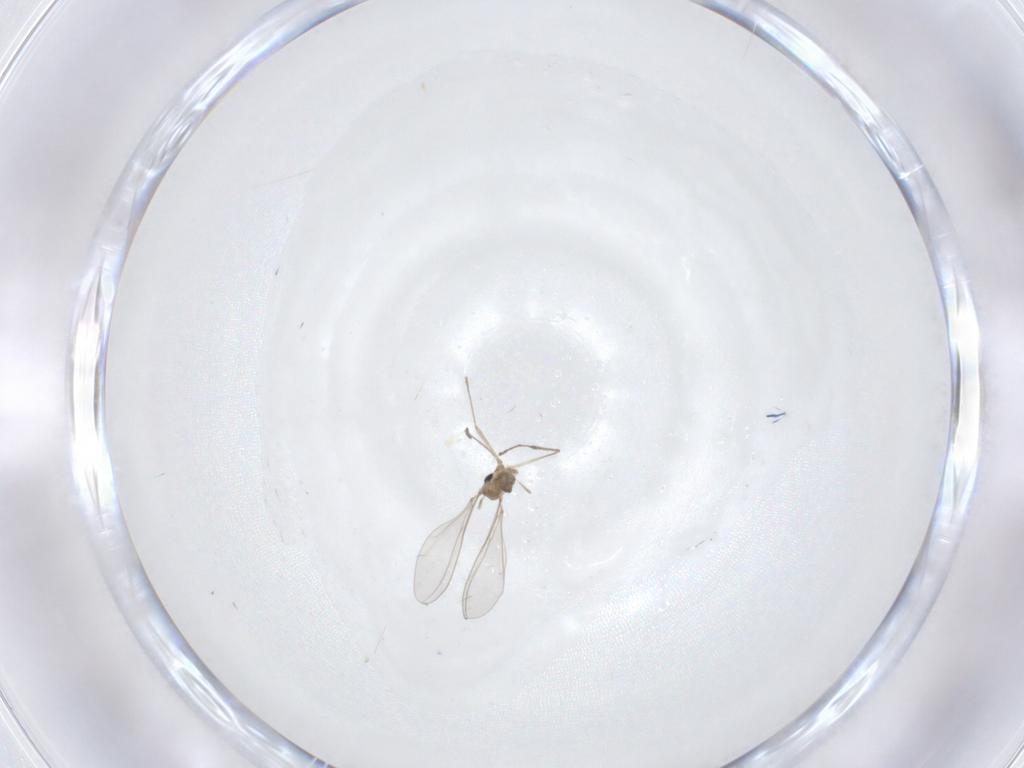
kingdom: Animalia
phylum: Arthropoda
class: Insecta
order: Diptera
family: Cecidomyiidae
